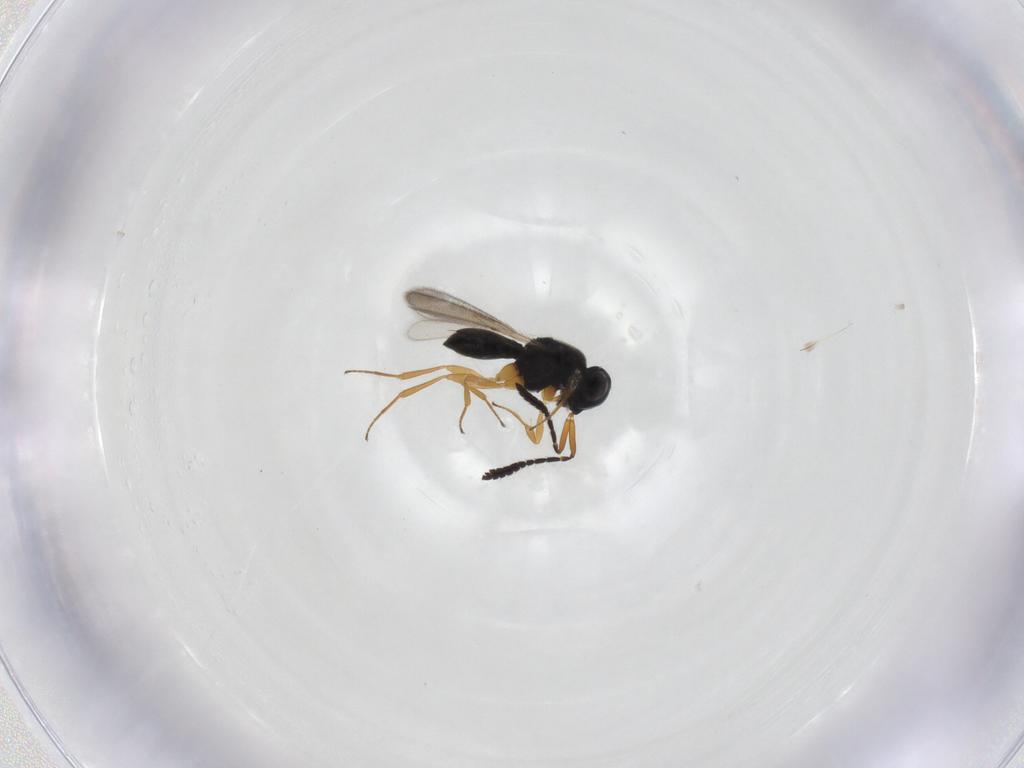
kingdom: Animalia
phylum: Arthropoda
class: Insecta
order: Hymenoptera
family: Scelionidae
